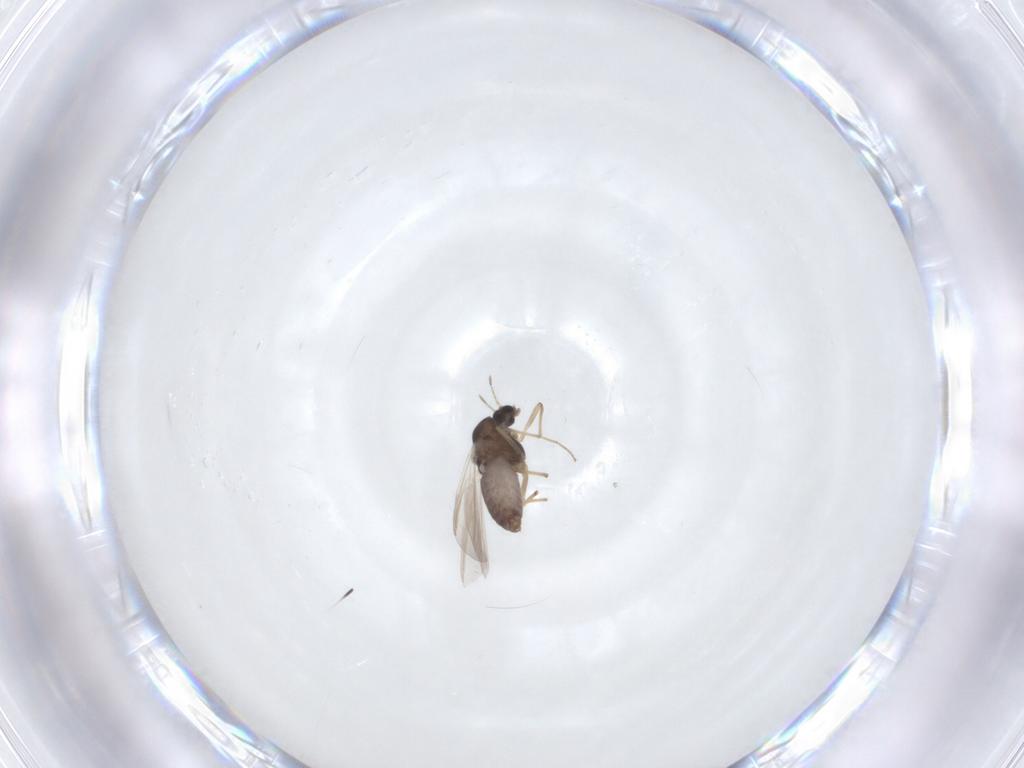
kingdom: Animalia
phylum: Arthropoda
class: Insecta
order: Diptera
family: Chironomidae
